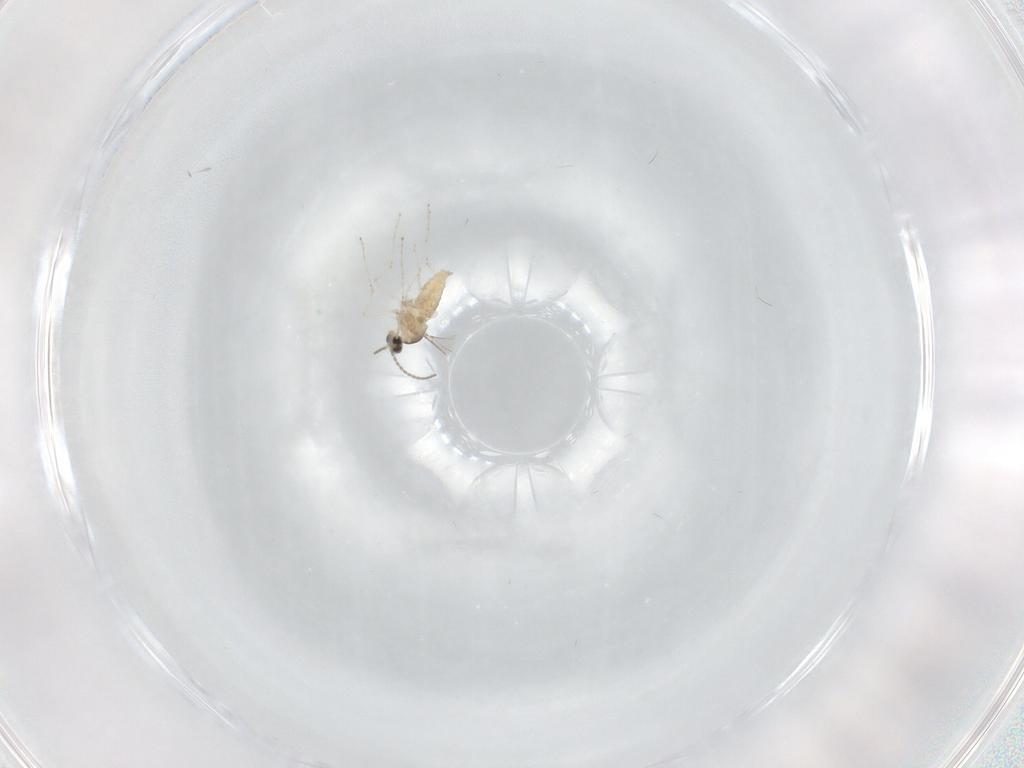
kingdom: Animalia
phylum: Arthropoda
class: Insecta
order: Diptera
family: Cecidomyiidae
